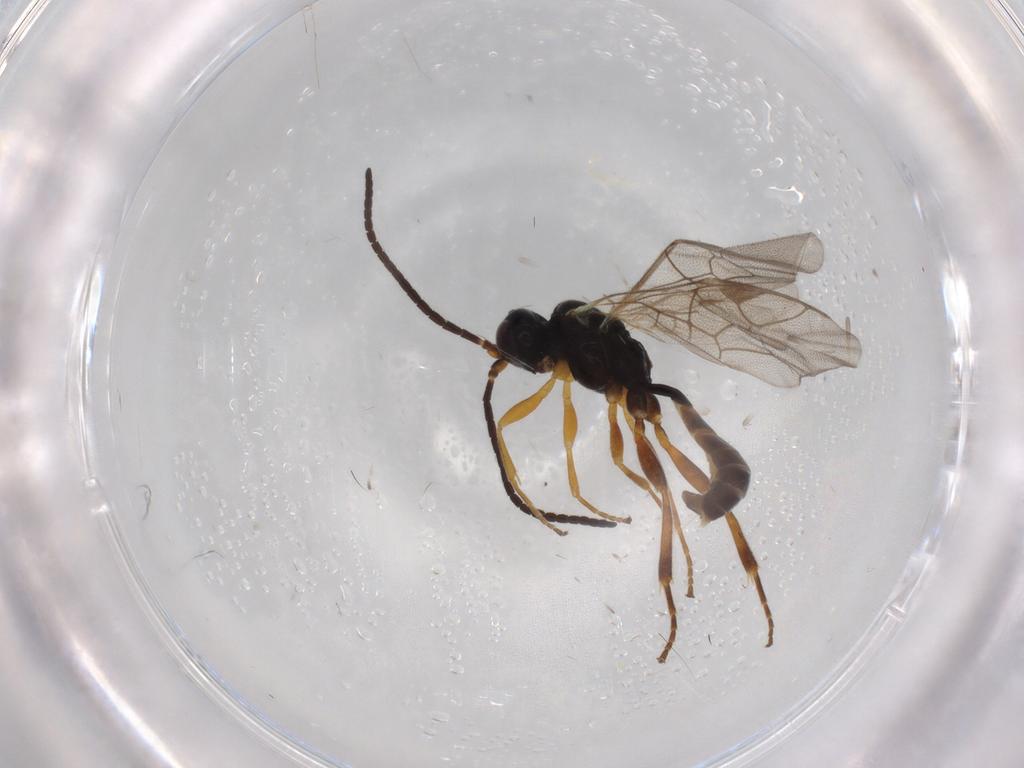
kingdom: Animalia
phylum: Arthropoda
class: Insecta
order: Hymenoptera
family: Ichneumonidae
